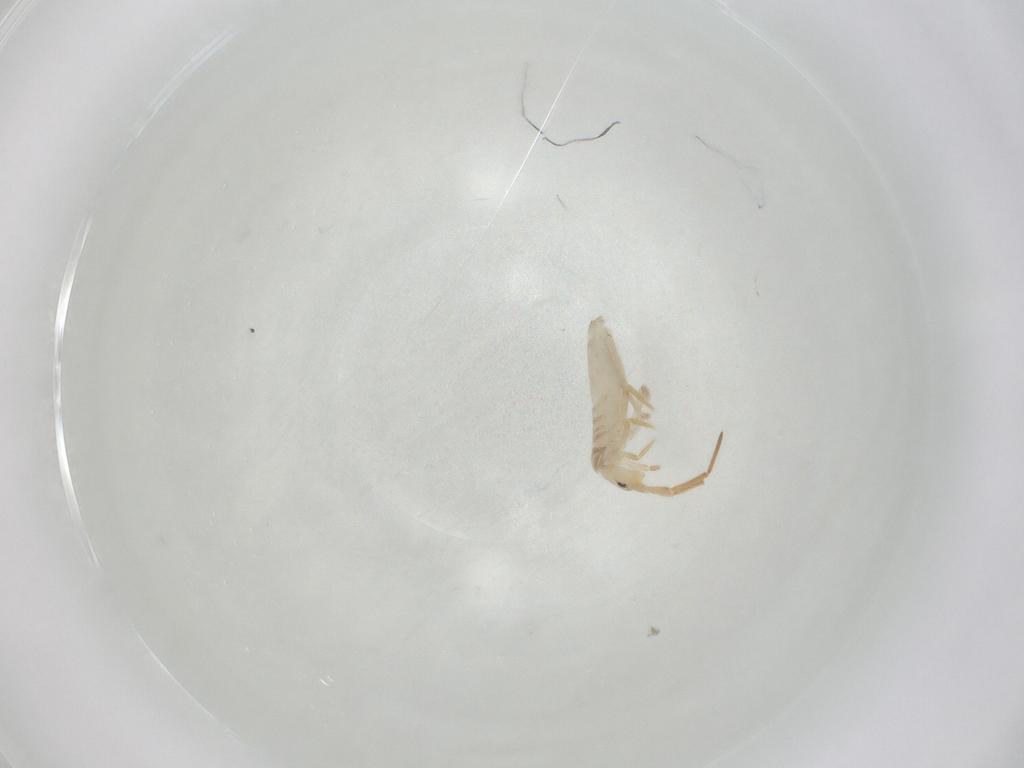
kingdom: Animalia
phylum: Arthropoda
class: Collembola
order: Entomobryomorpha
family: Entomobryidae
